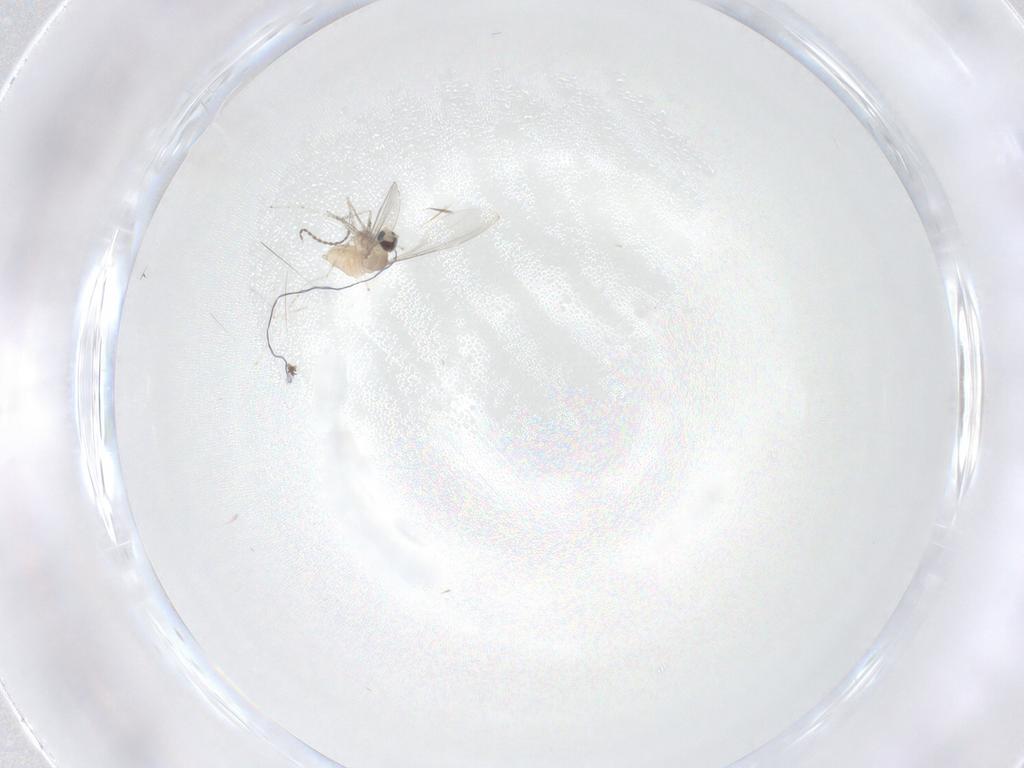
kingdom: Animalia
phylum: Arthropoda
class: Insecta
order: Diptera
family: Cecidomyiidae
